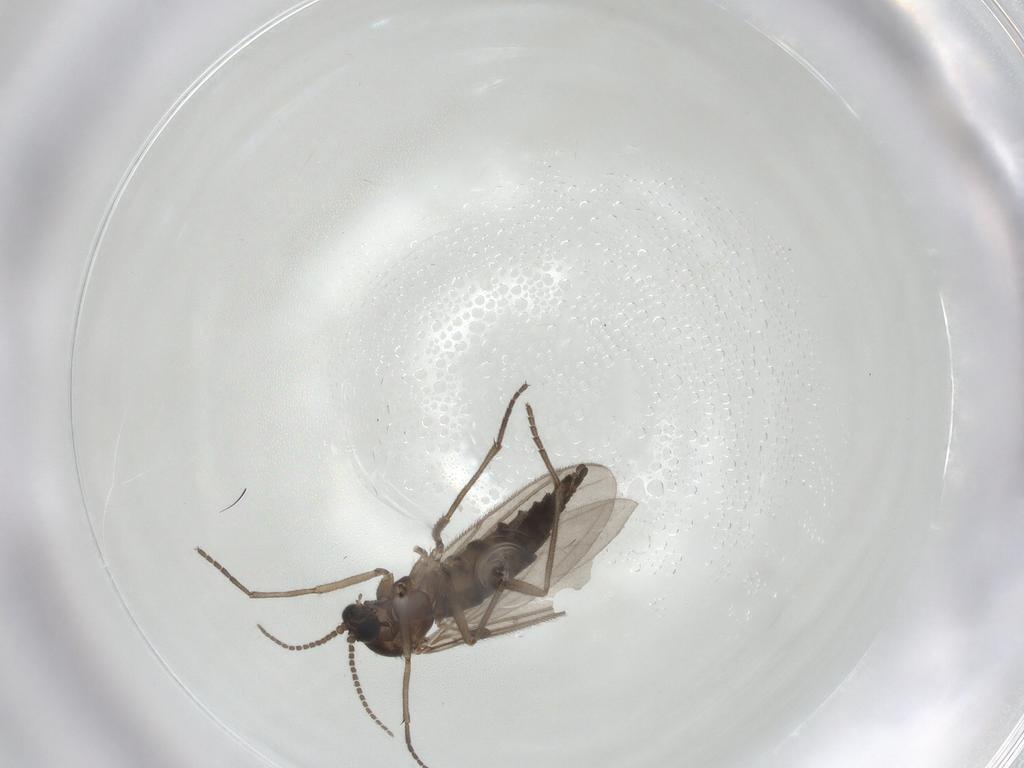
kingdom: Animalia
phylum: Arthropoda
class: Insecta
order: Diptera
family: Sciaridae
